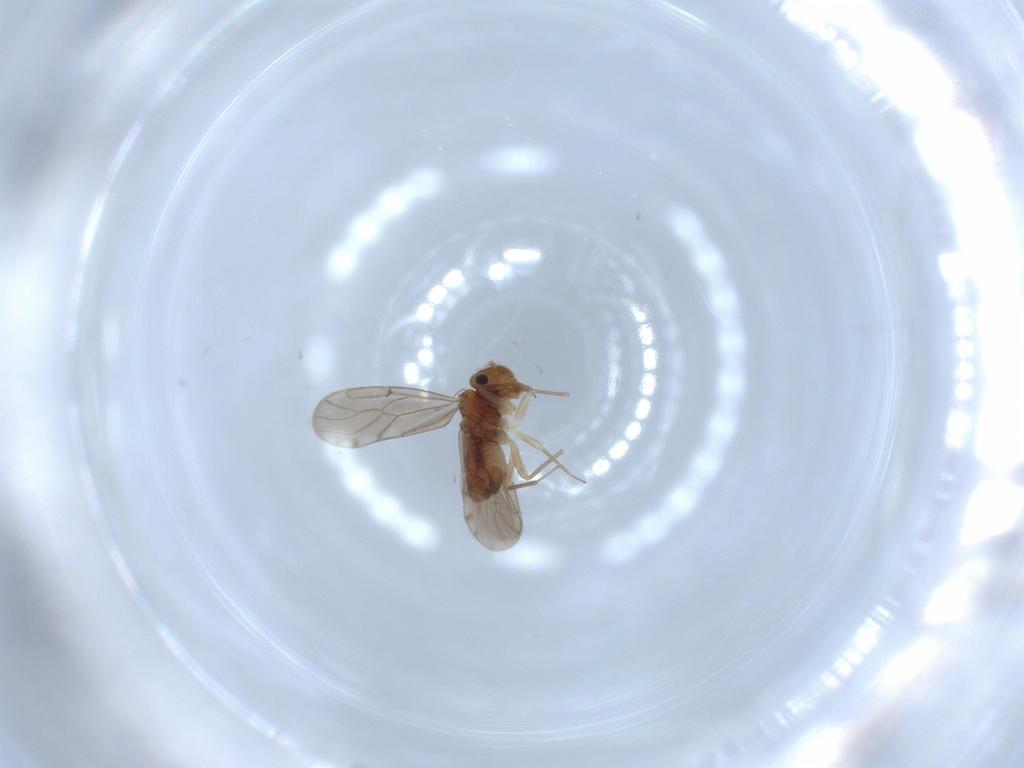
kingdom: Animalia
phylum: Arthropoda
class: Insecta
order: Psocodea
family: Ectopsocidae
